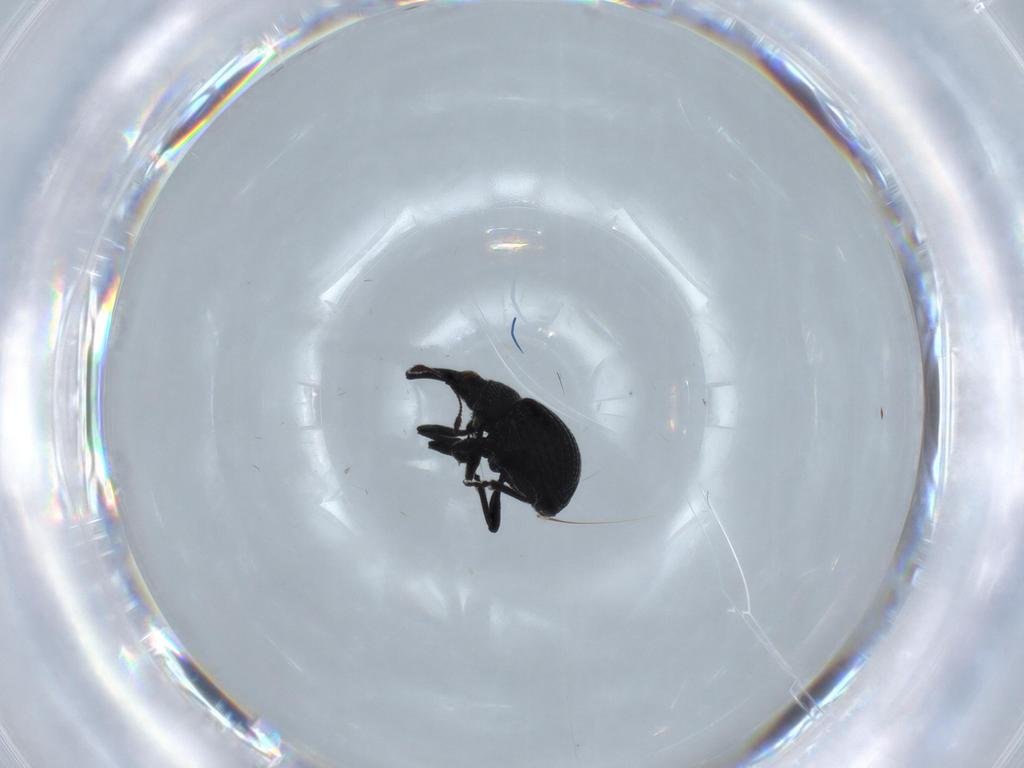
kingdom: Animalia
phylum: Arthropoda
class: Insecta
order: Coleoptera
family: Brentidae
